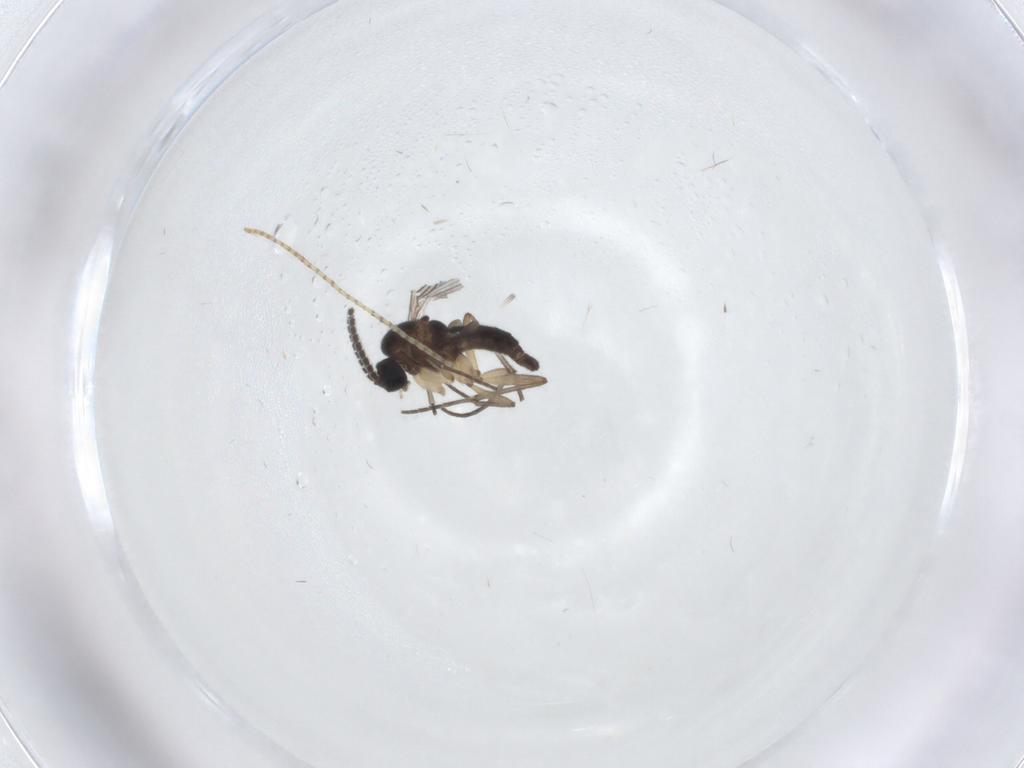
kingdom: Animalia
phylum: Arthropoda
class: Insecta
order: Diptera
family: Sciaridae
